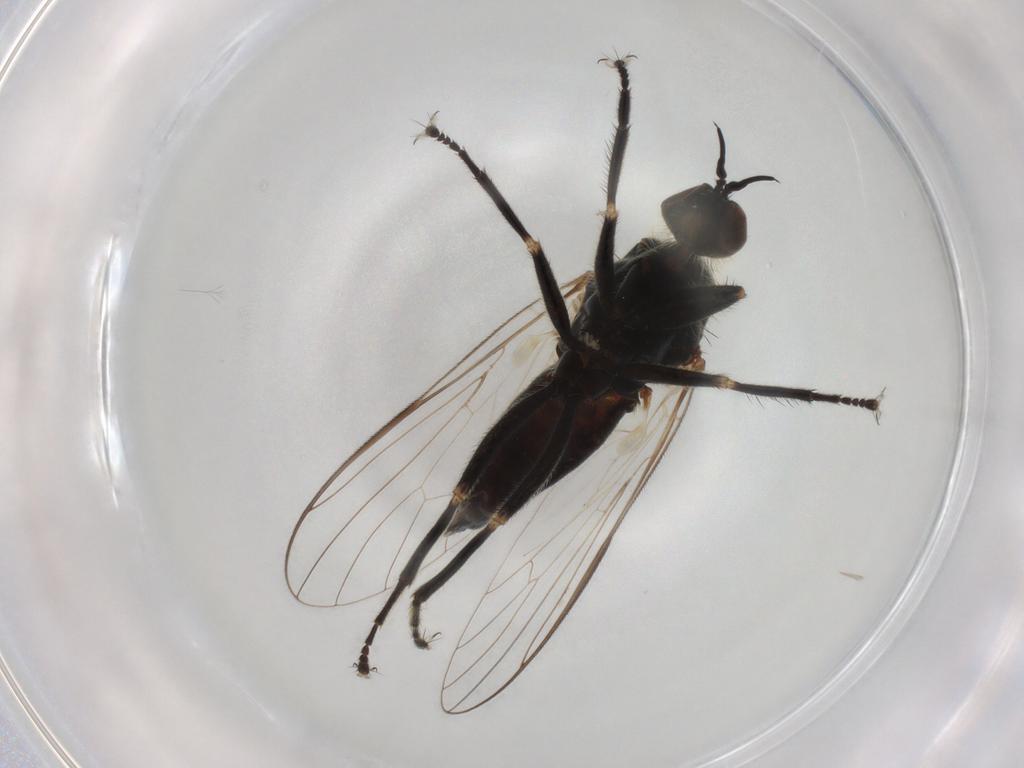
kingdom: Animalia
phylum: Arthropoda
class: Insecta
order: Diptera
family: Empididae
